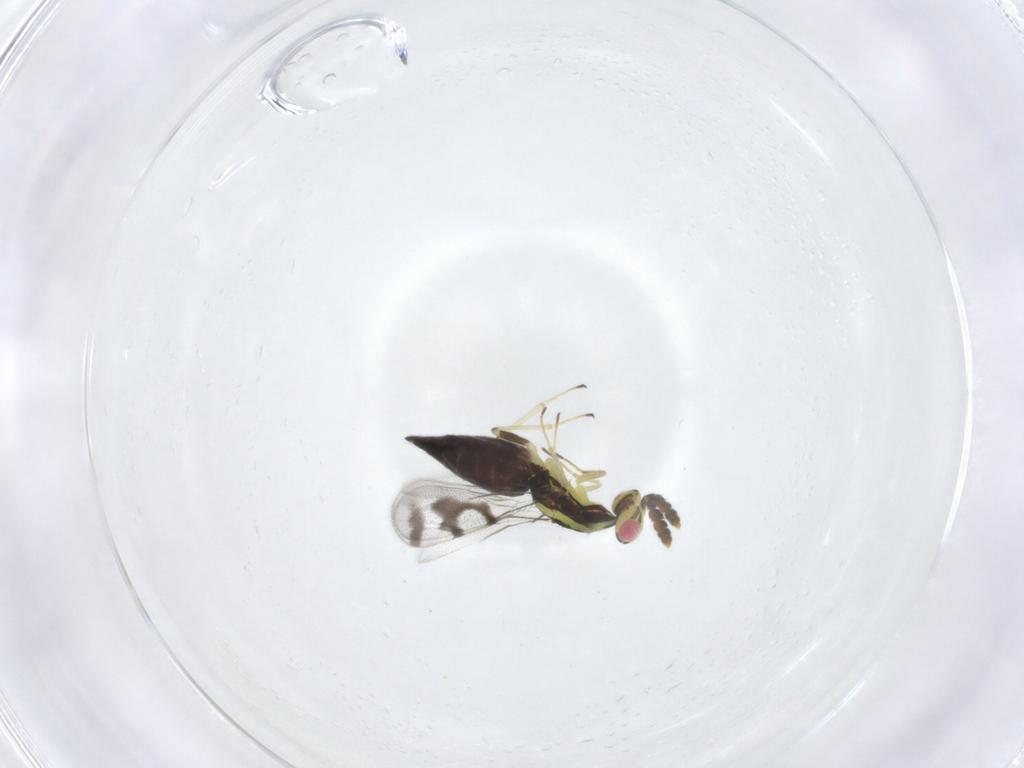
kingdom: Animalia
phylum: Arthropoda
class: Insecta
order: Hymenoptera
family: Eulophidae
